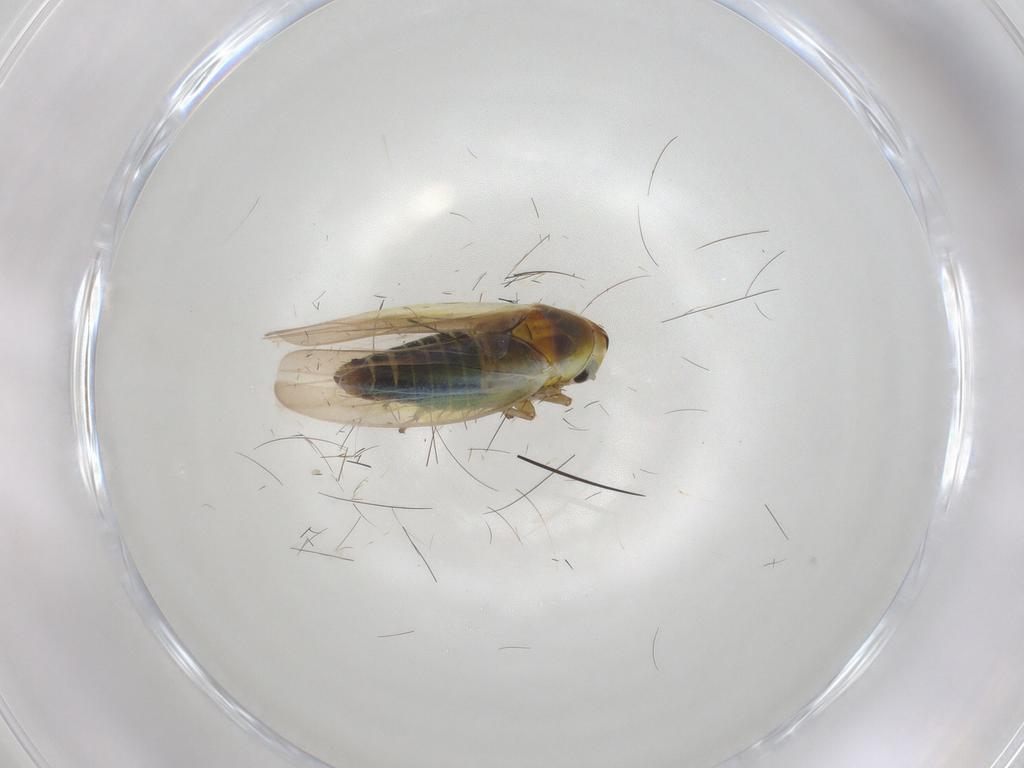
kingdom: Animalia
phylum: Arthropoda
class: Insecta
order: Hemiptera
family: Cicadellidae
